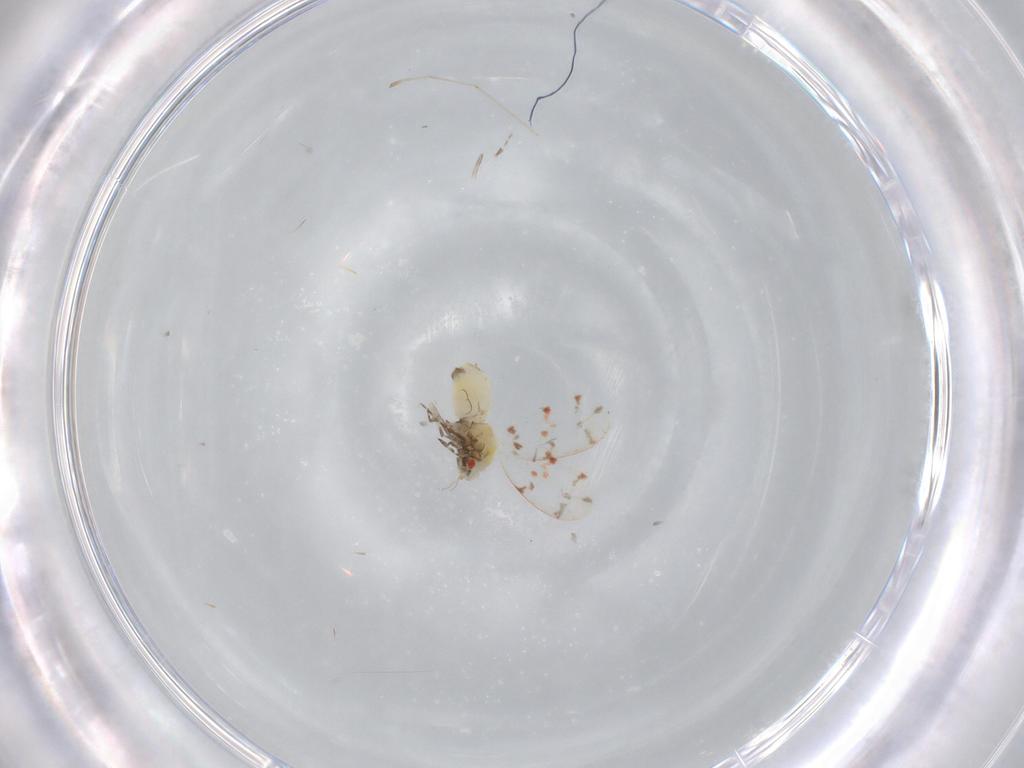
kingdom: Animalia
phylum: Arthropoda
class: Insecta
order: Hemiptera
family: Aleyrodidae
